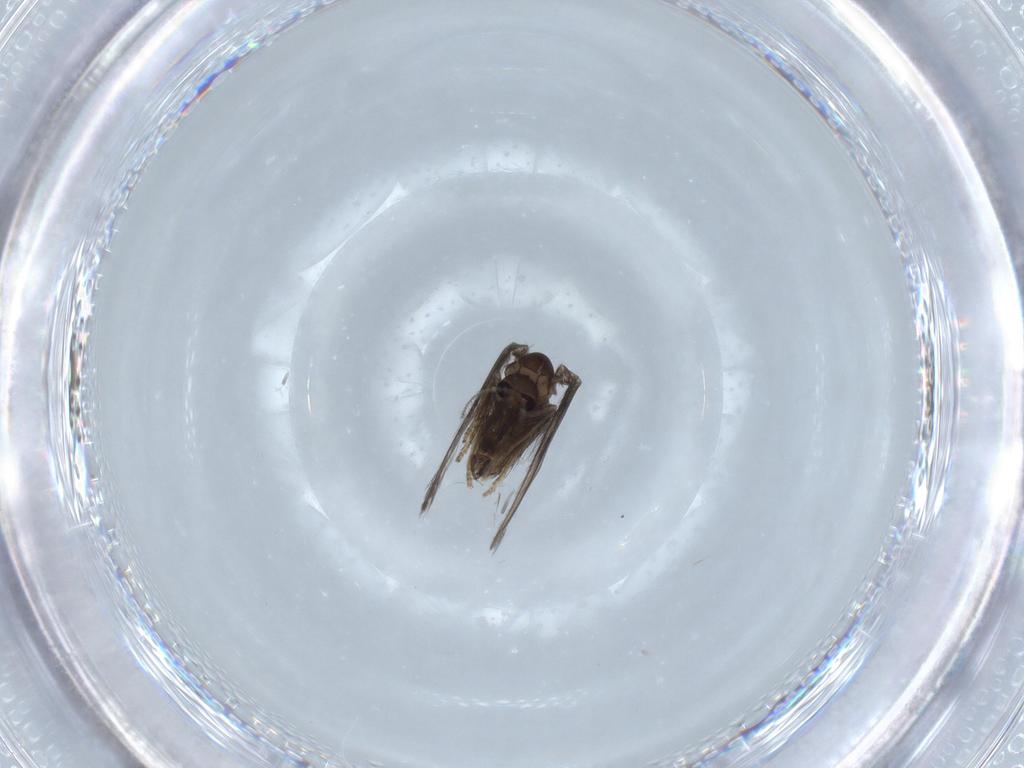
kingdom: Animalia
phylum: Arthropoda
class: Insecta
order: Diptera
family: Psychodidae
